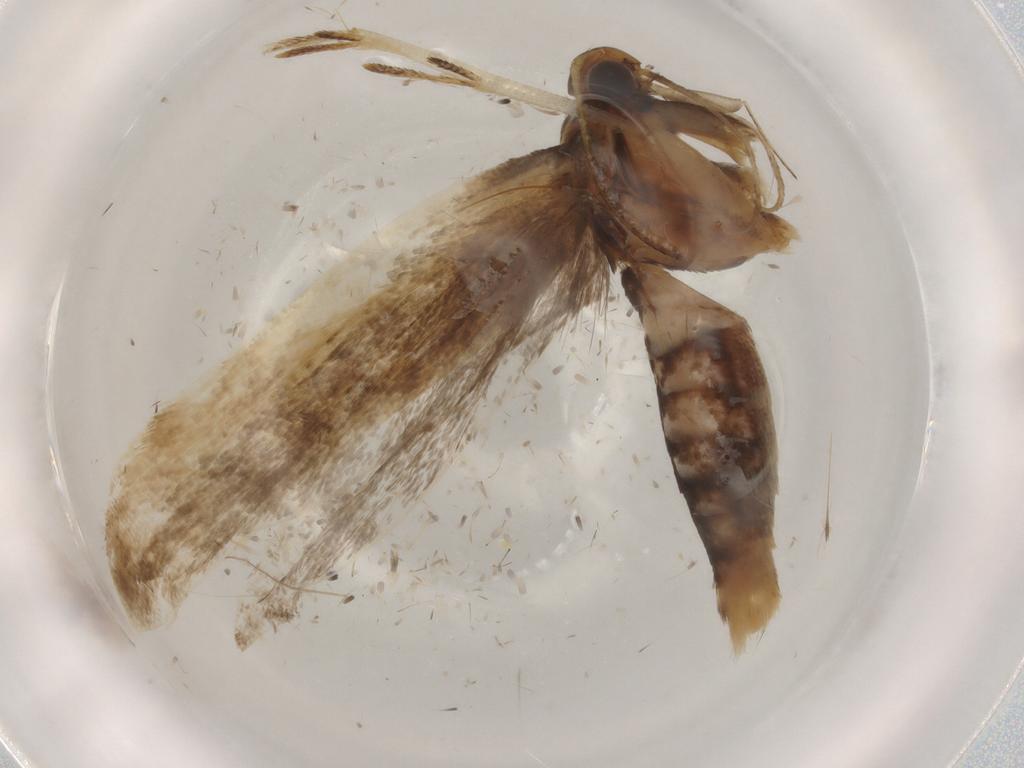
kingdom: Animalia
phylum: Arthropoda
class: Insecta
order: Lepidoptera
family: Gelechiidae
